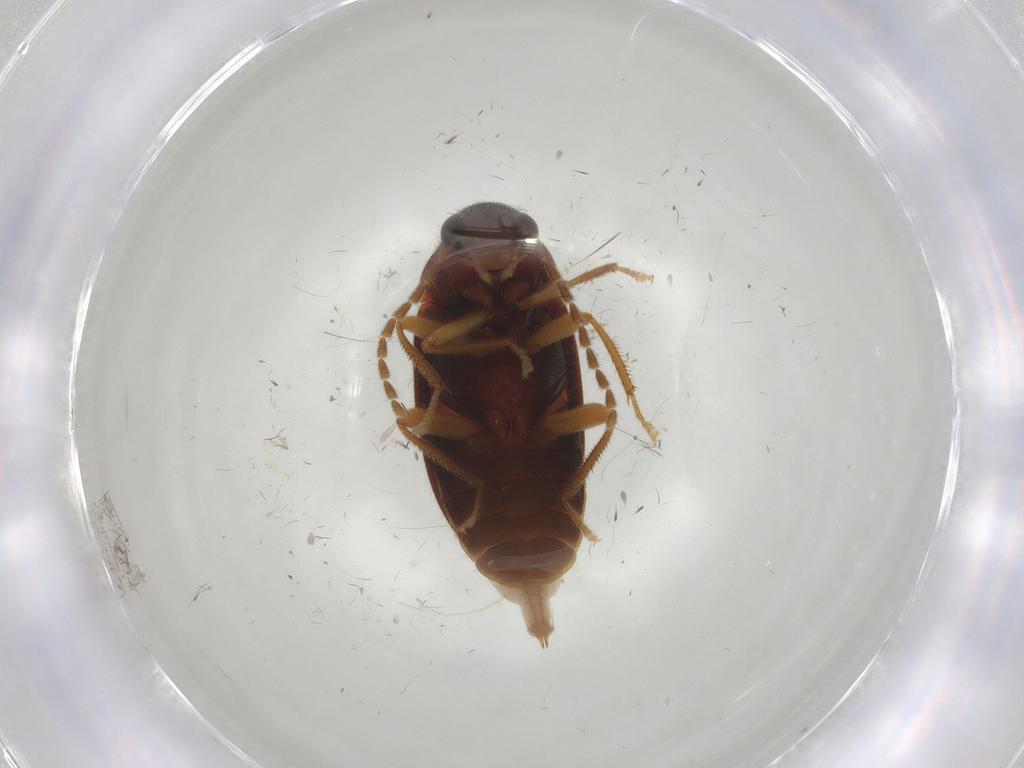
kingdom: Animalia
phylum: Arthropoda
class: Insecta
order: Coleoptera
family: Ptilodactylidae
